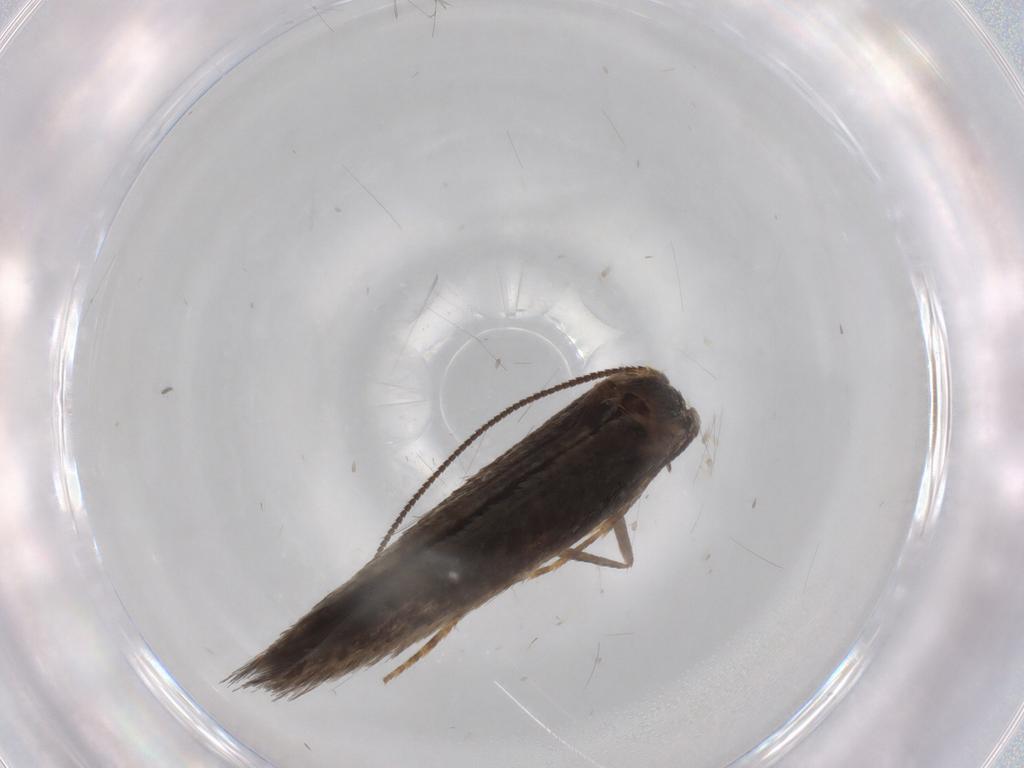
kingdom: Animalia
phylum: Arthropoda
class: Insecta
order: Lepidoptera
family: Nepticulidae
